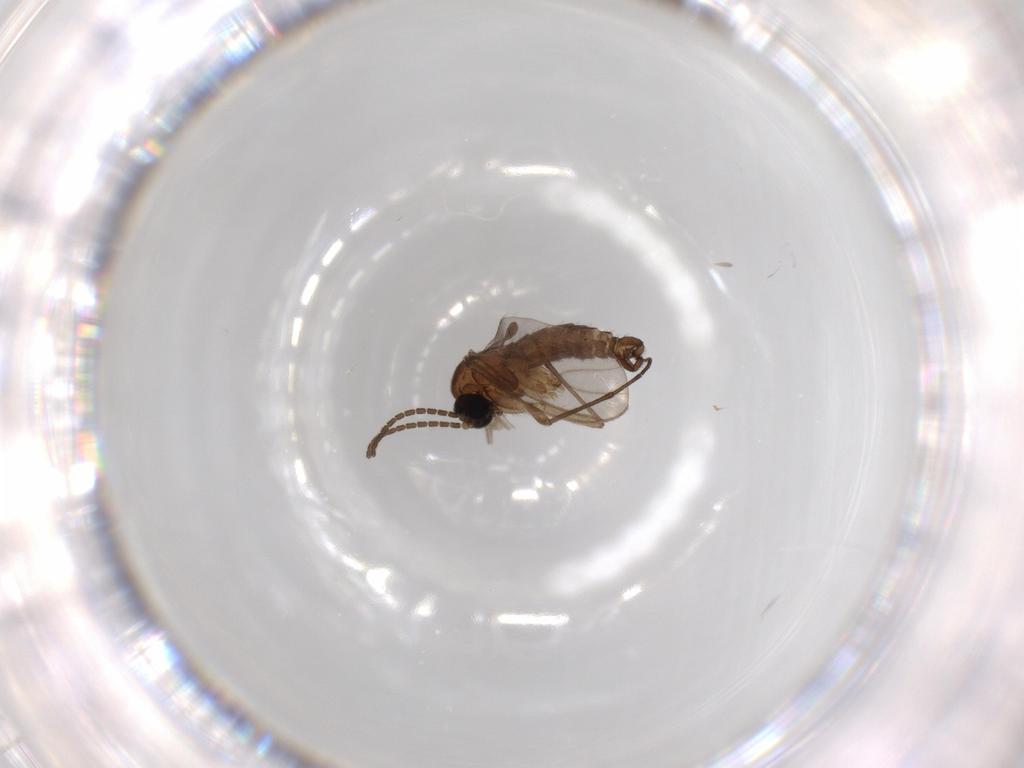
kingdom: Animalia
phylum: Arthropoda
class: Insecta
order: Diptera
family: Sciaridae
